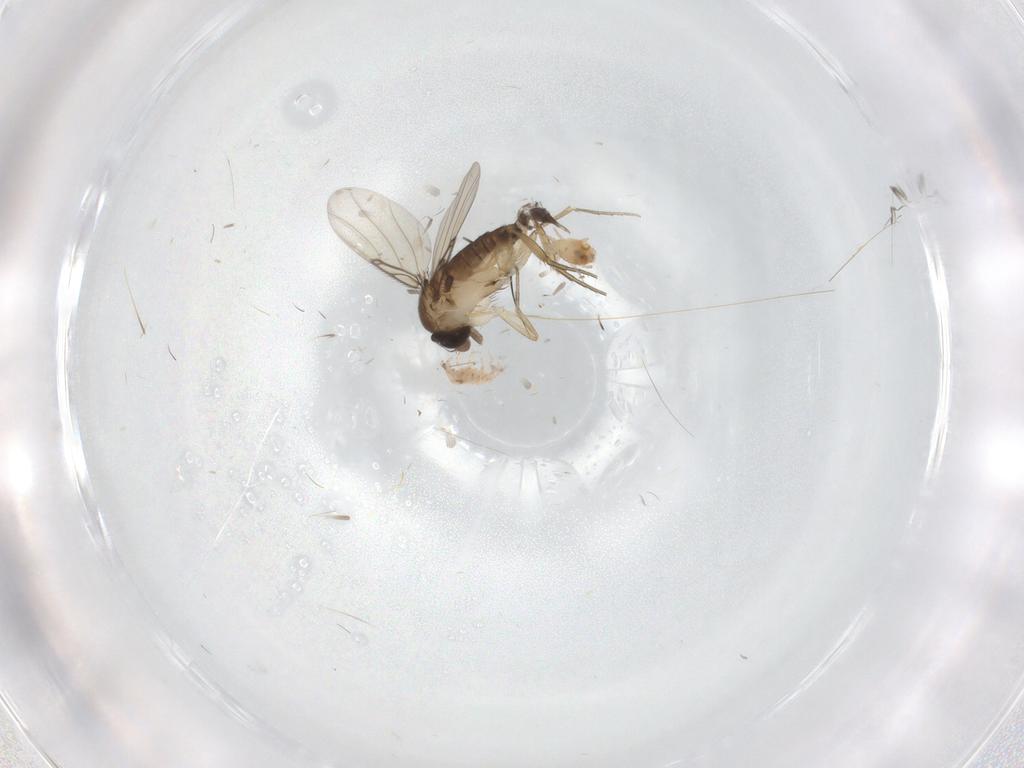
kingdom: Animalia
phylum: Arthropoda
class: Insecta
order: Diptera
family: Phoridae
